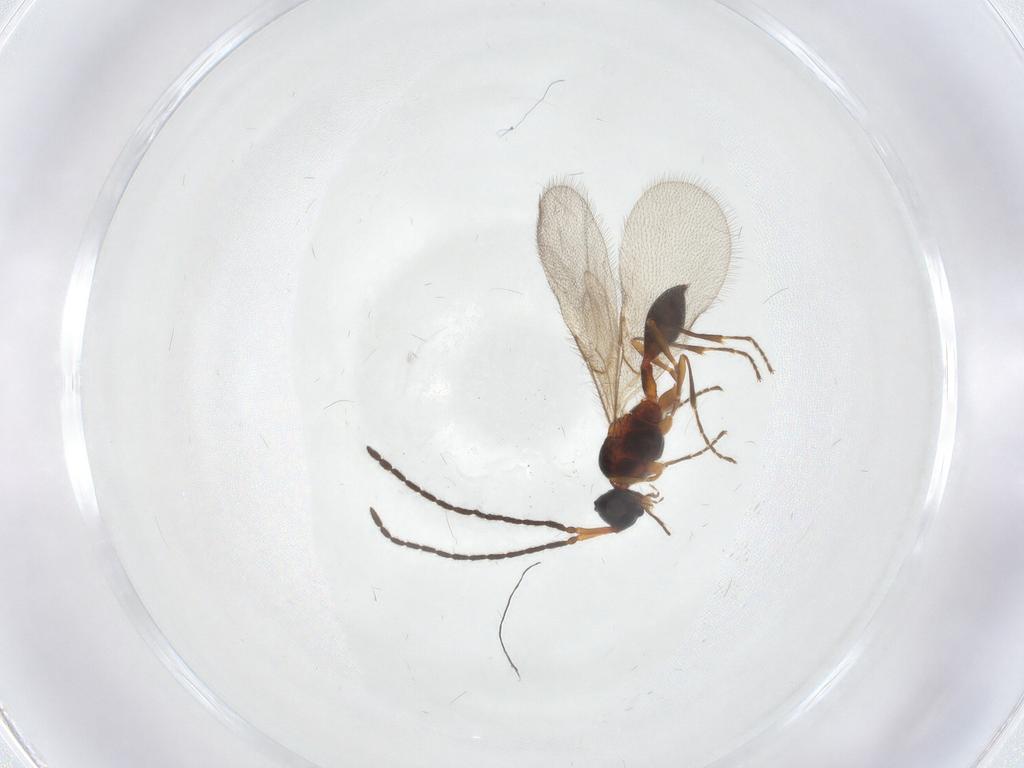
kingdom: Animalia
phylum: Arthropoda
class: Insecta
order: Hymenoptera
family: Diapriidae
